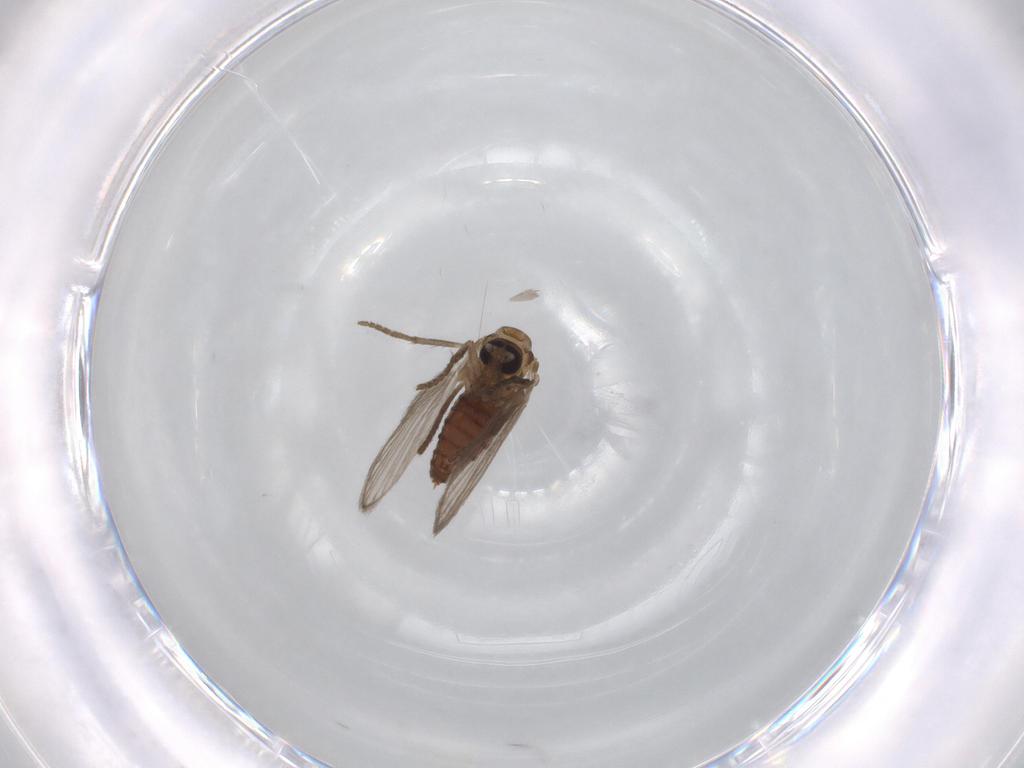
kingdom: Animalia
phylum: Arthropoda
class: Insecta
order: Diptera
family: Psychodidae
